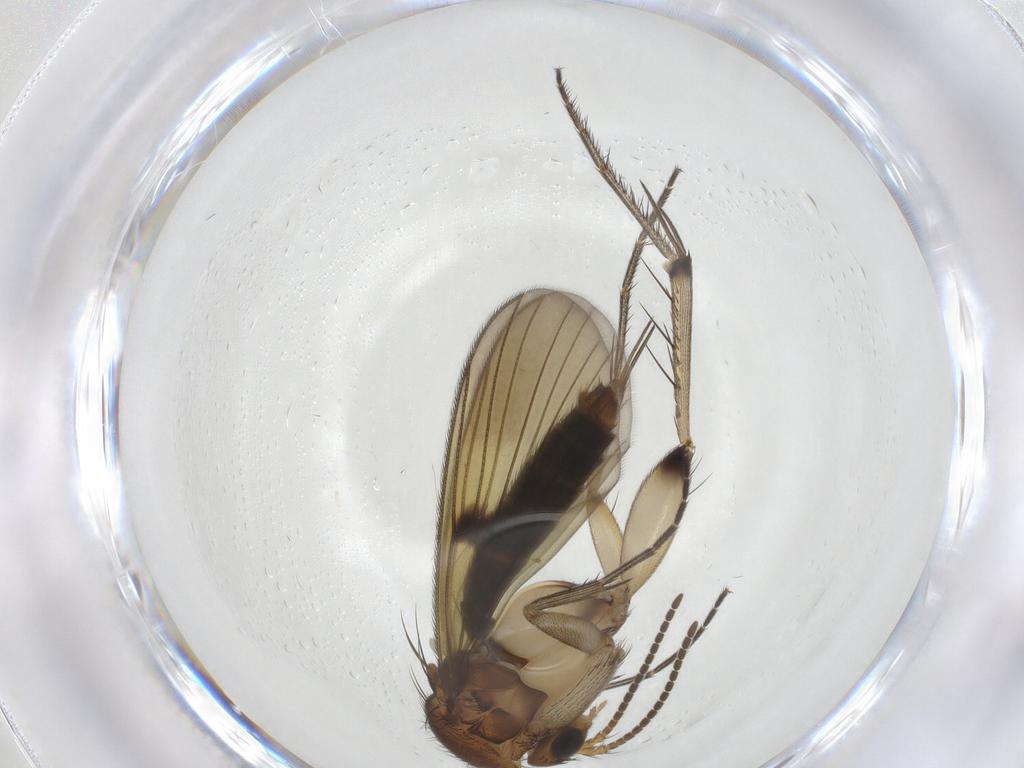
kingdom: Animalia
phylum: Arthropoda
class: Insecta
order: Diptera
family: Mycetophilidae
